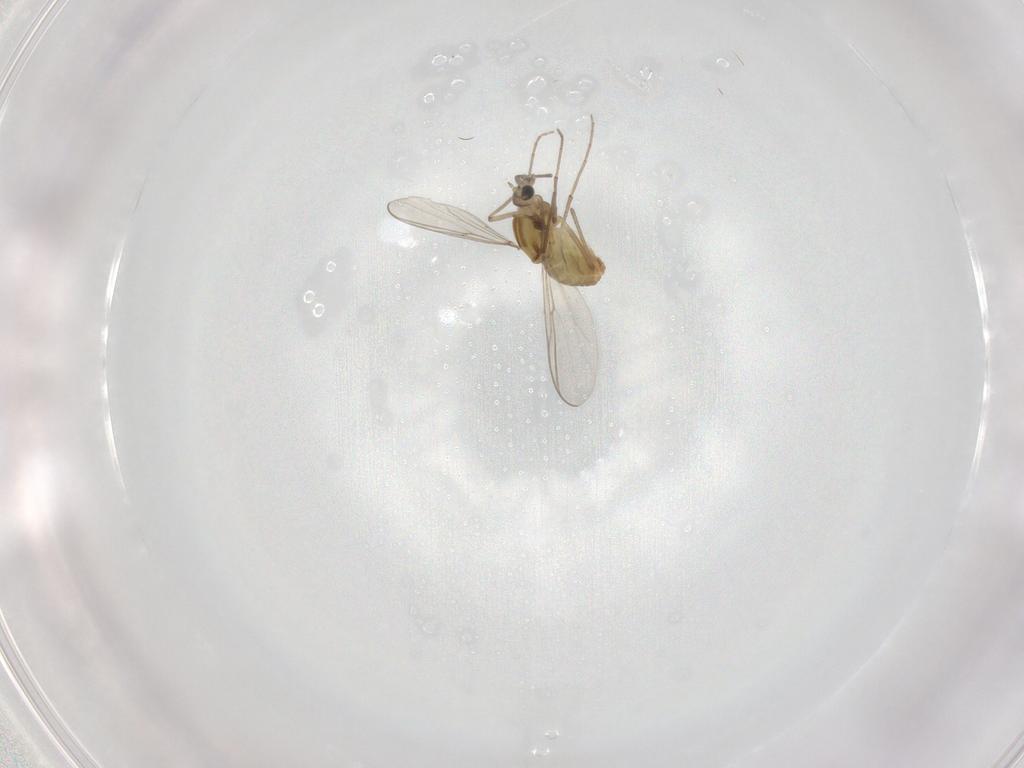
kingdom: Animalia
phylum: Arthropoda
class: Insecta
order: Diptera
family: Chironomidae
